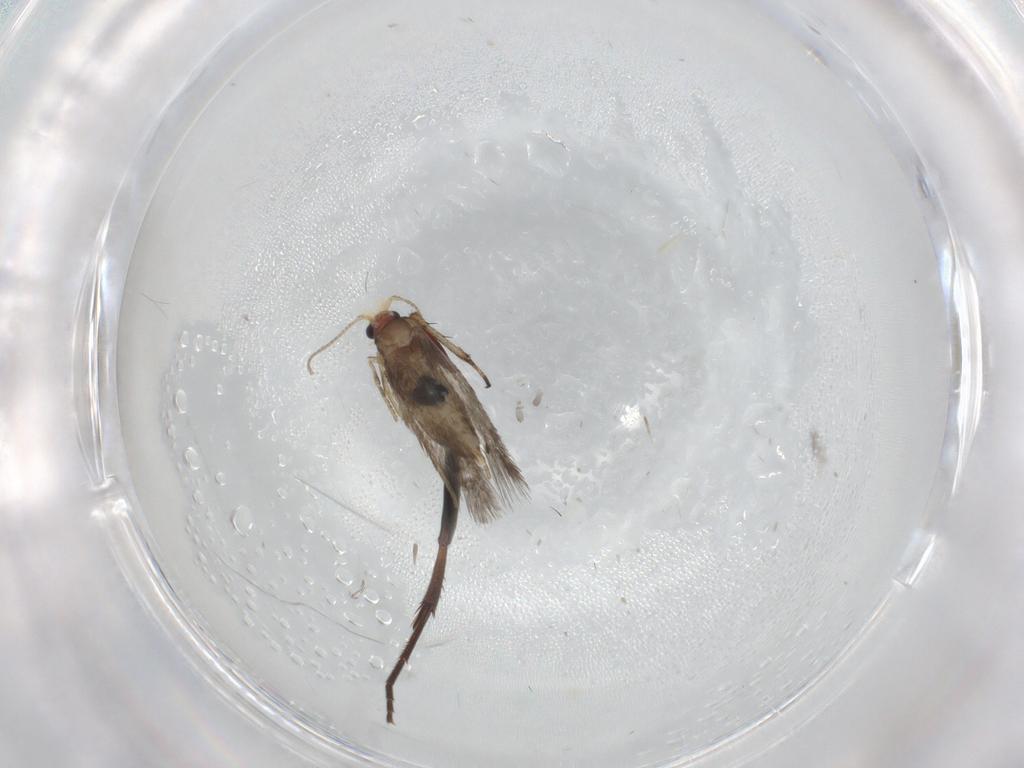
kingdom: Animalia
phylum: Arthropoda
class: Insecta
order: Lepidoptera
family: Nepticulidae
